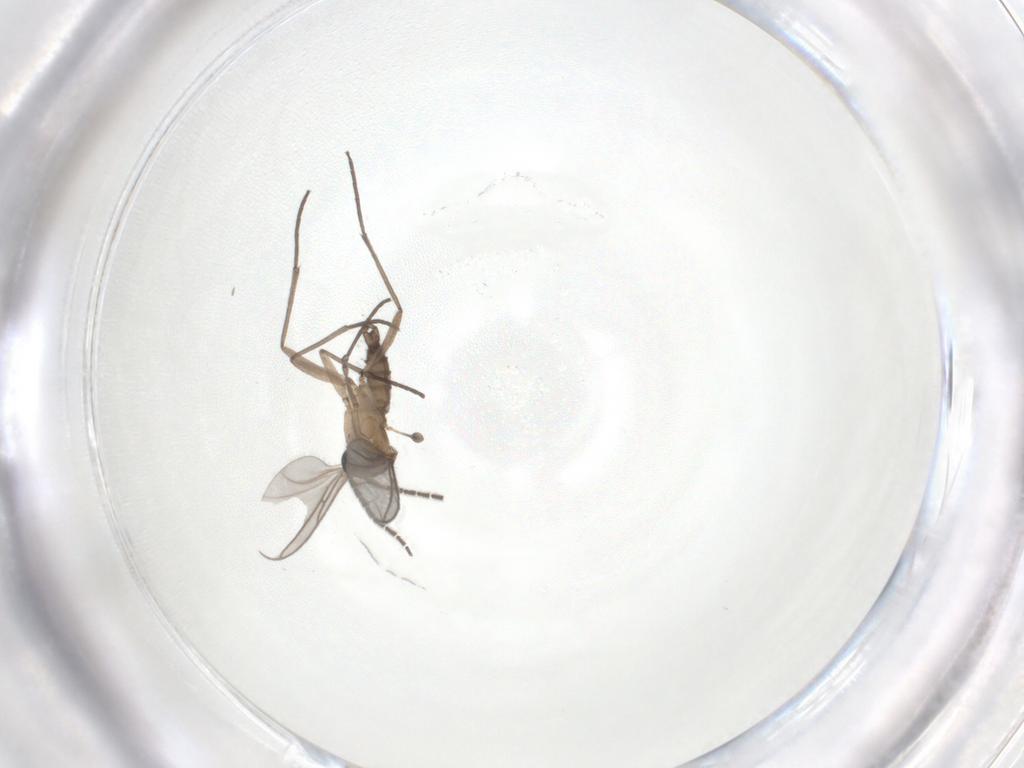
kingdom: Animalia
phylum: Arthropoda
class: Insecta
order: Diptera
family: Sciaridae
